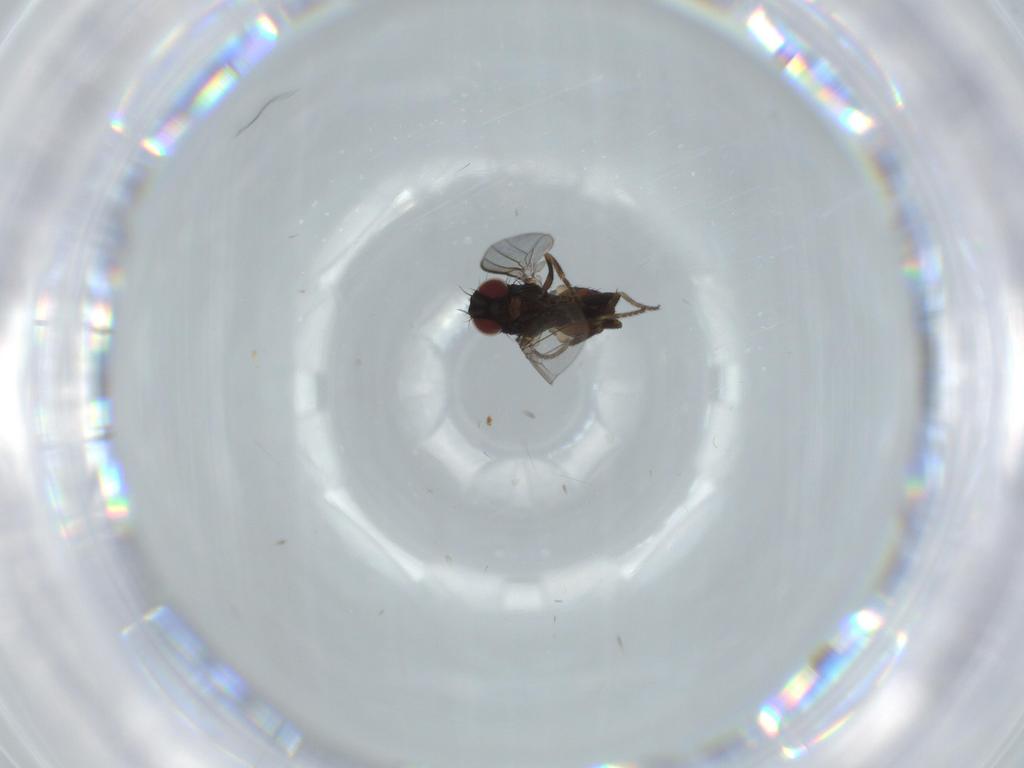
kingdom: Animalia
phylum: Arthropoda
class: Insecta
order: Diptera
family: Milichiidae
